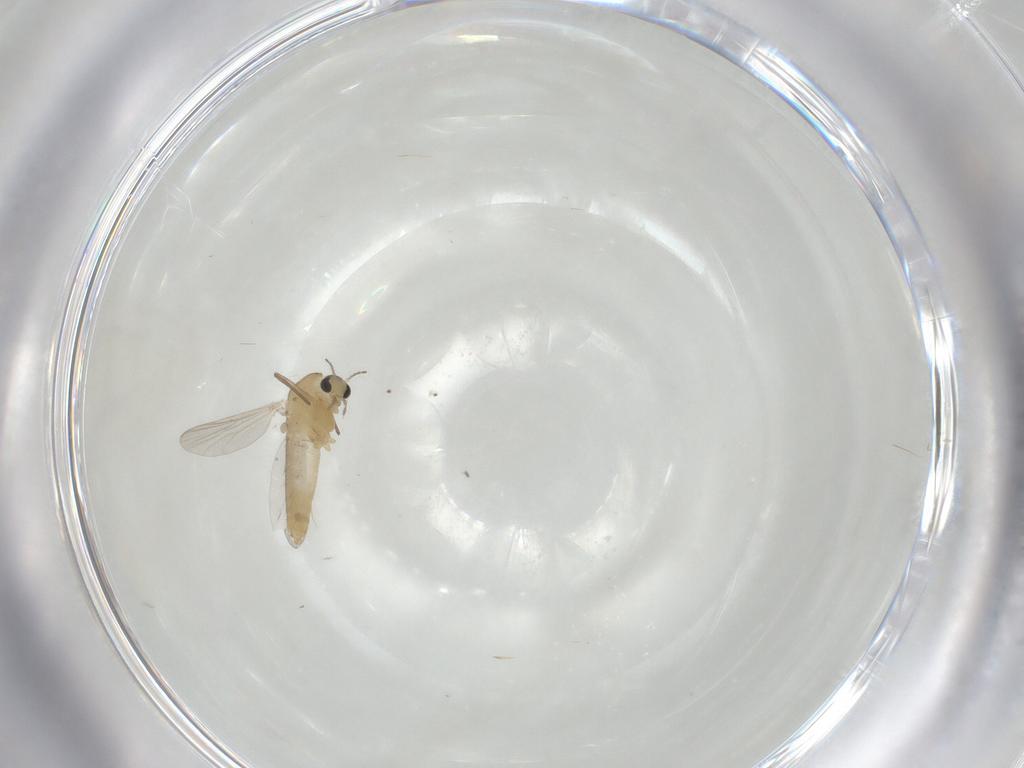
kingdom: Animalia
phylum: Arthropoda
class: Insecta
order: Diptera
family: Chironomidae
